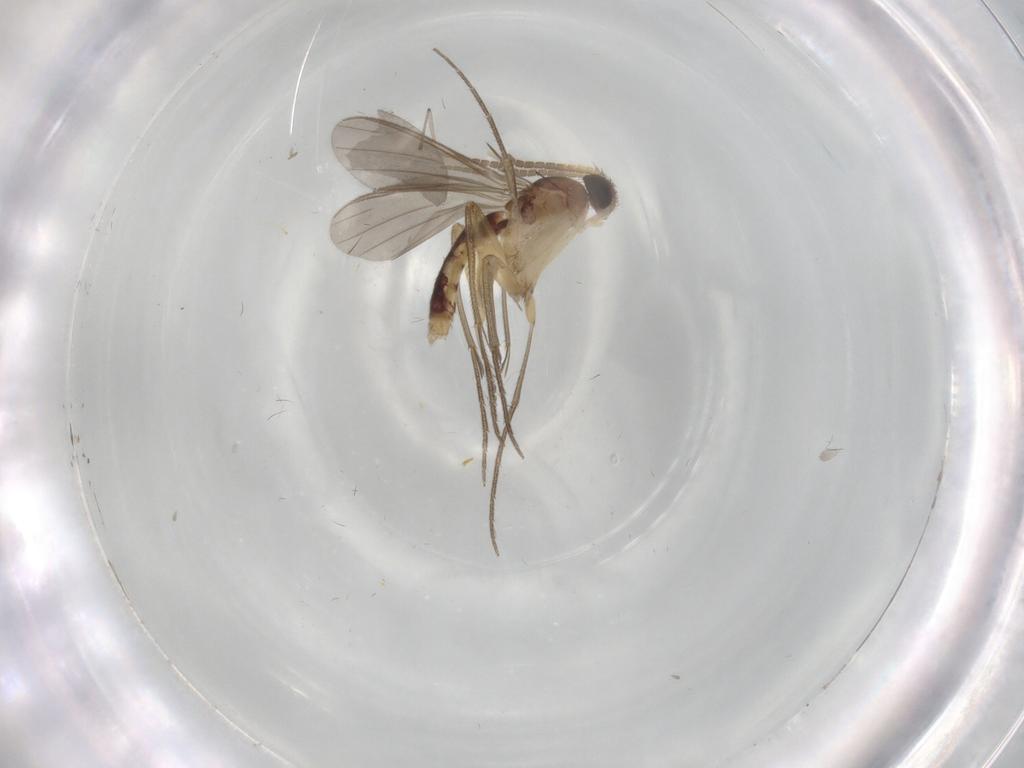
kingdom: Animalia
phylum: Arthropoda
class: Insecta
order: Diptera
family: Mycetophilidae
